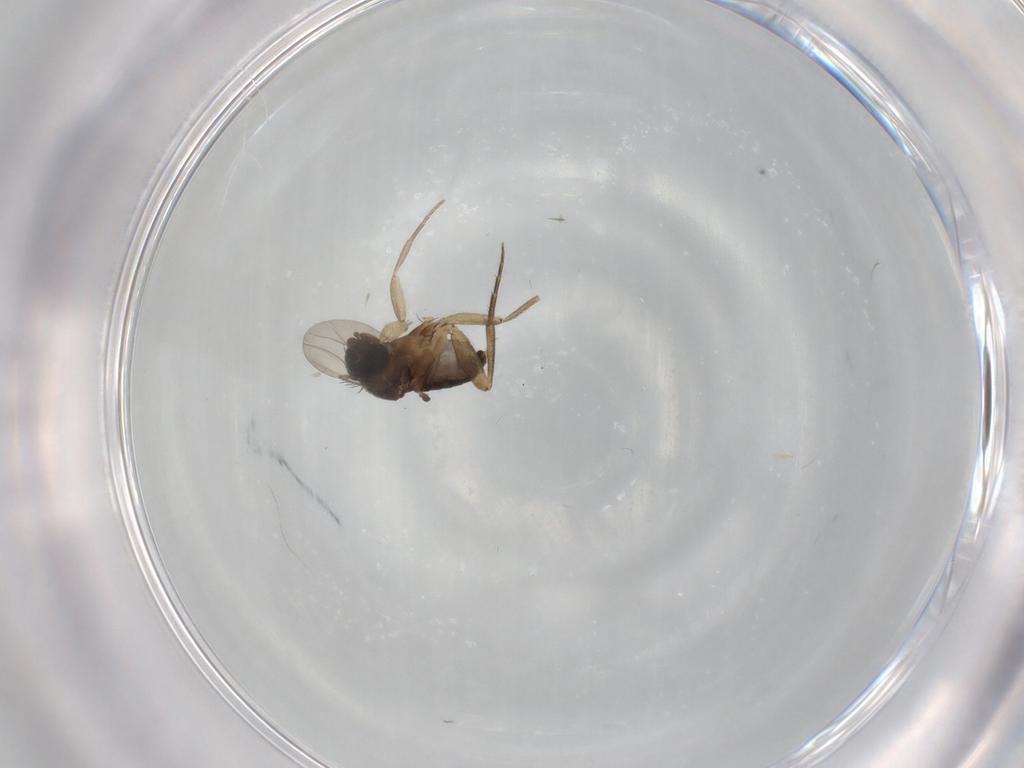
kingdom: Animalia
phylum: Arthropoda
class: Insecta
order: Diptera
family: Phoridae
